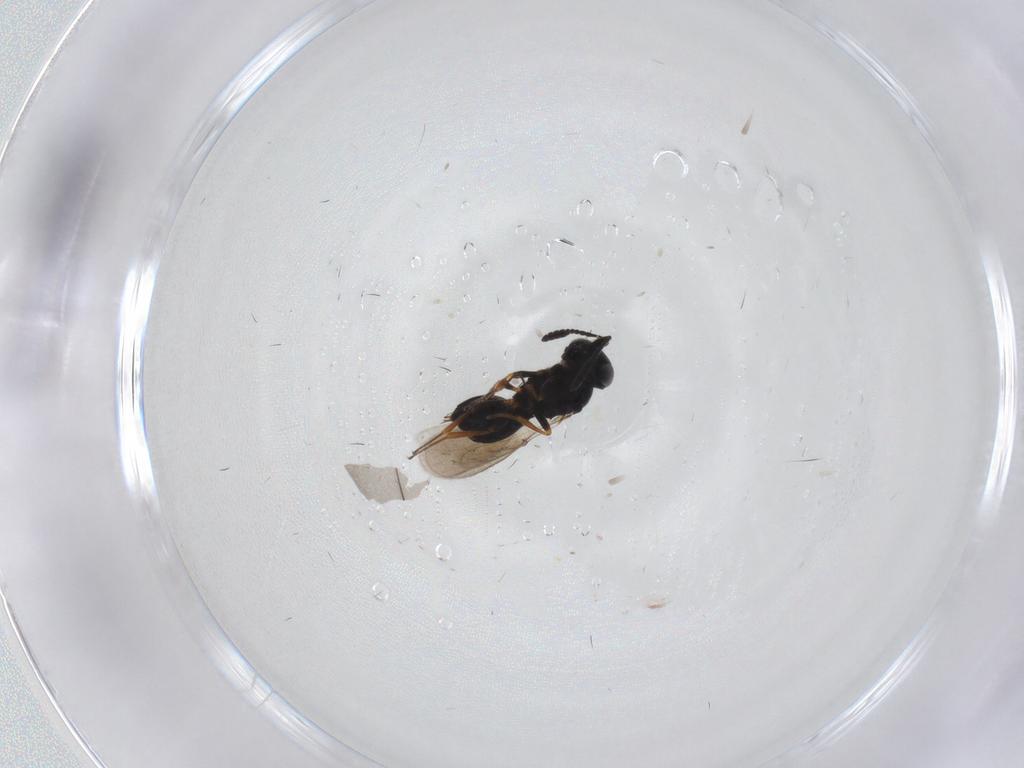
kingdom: Animalia
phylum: Arthropoda
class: Insecta
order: Hymenoptera
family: Scelionidae
